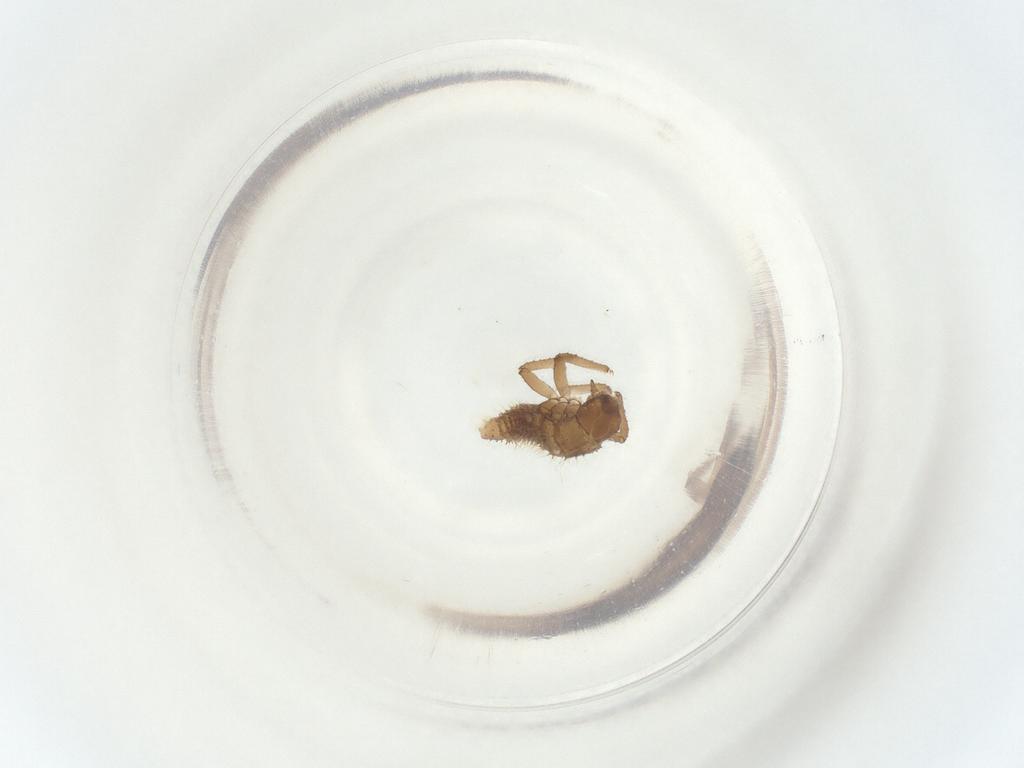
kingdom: Animalia
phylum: Arthropoda
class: Insecta
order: Coleoptera
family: Coccinellidae
